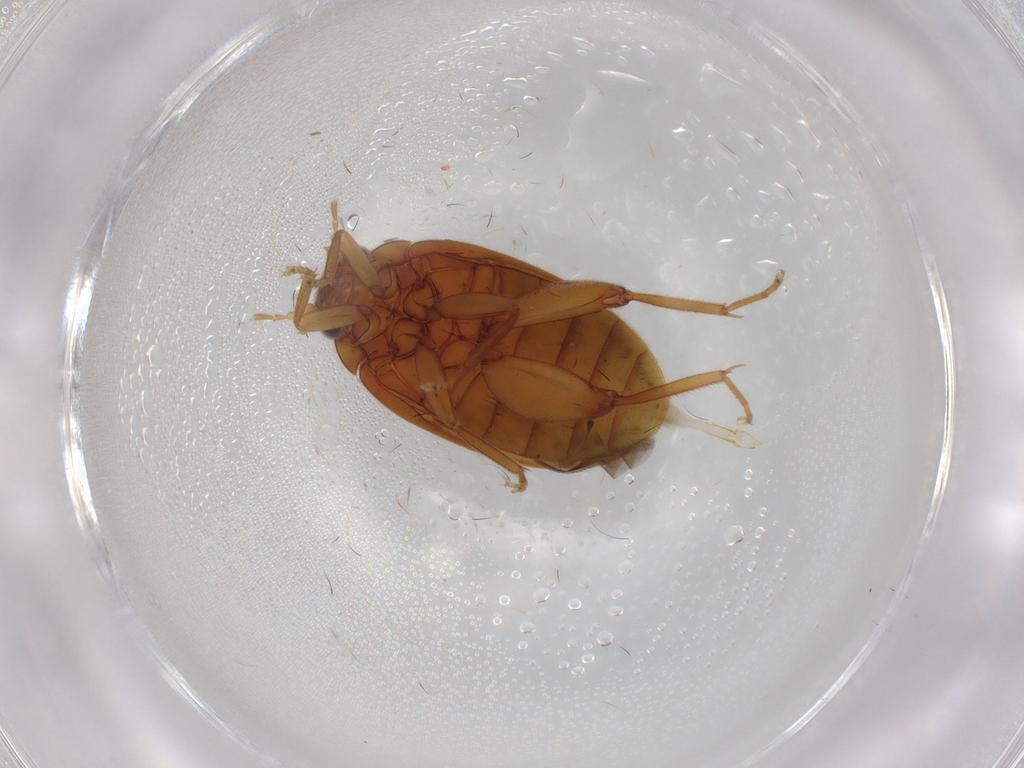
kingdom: Animalia
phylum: Arthropoda
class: Insecta
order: Coleoptera
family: Scirtidae
